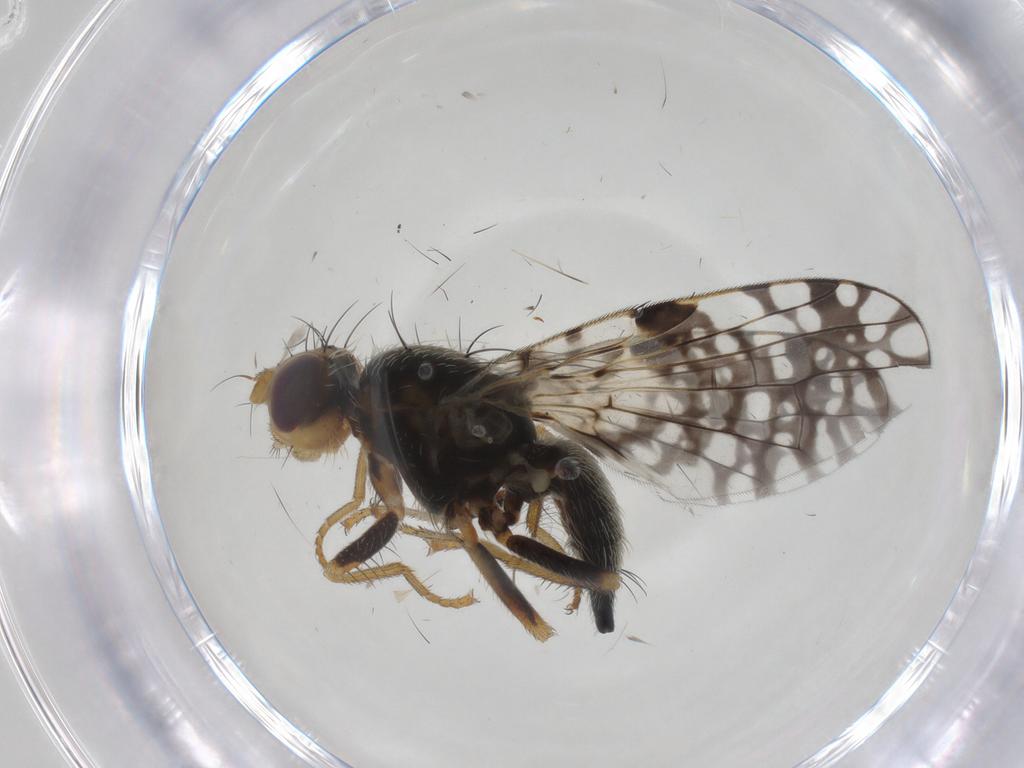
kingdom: Animalia
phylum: Arthropoda
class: Insecta
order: Diptera
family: Tephritidae
